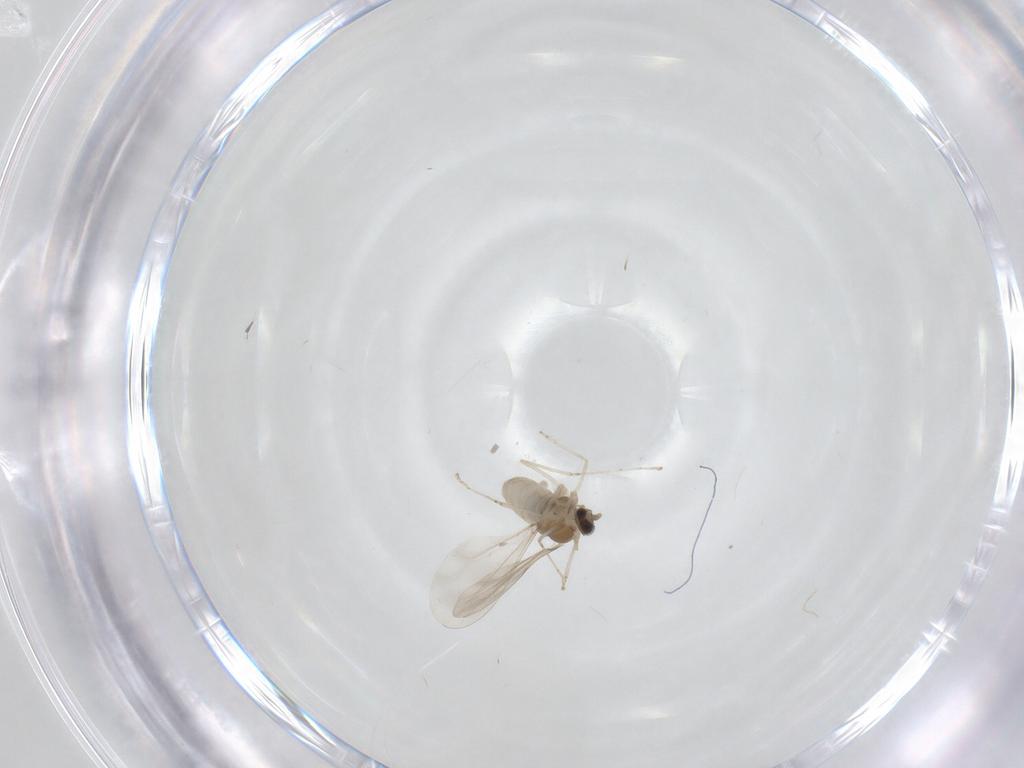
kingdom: Animalia
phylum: Arthropoda
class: Insecta
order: Diptera
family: Cecidomyiidae
